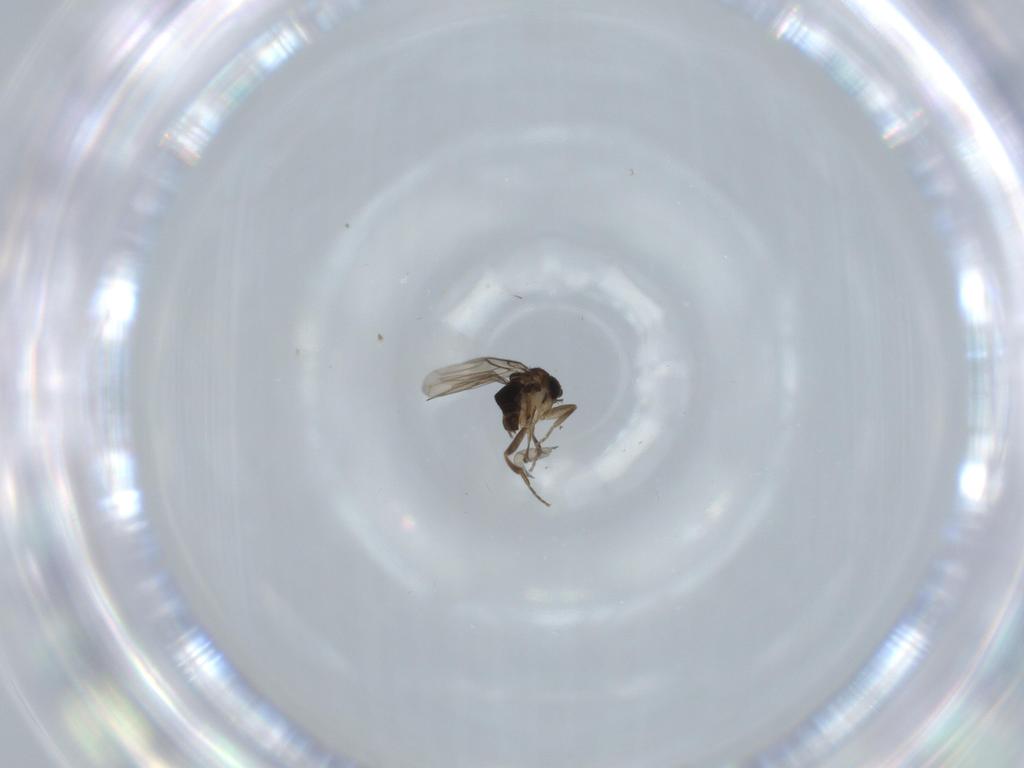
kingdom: Animalia
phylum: Arthropoda
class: Insecta
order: Diptera
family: Phoridae
